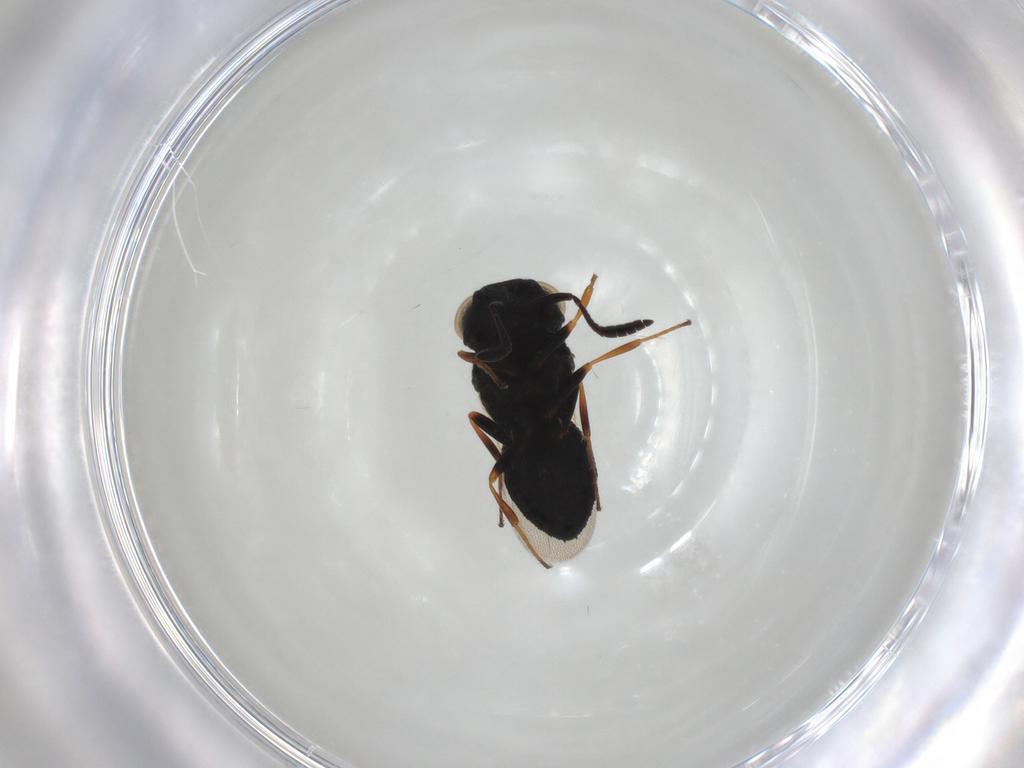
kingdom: Animalia
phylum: Arthropoda
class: Insecta
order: Hymenoptera
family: Scelionidae
